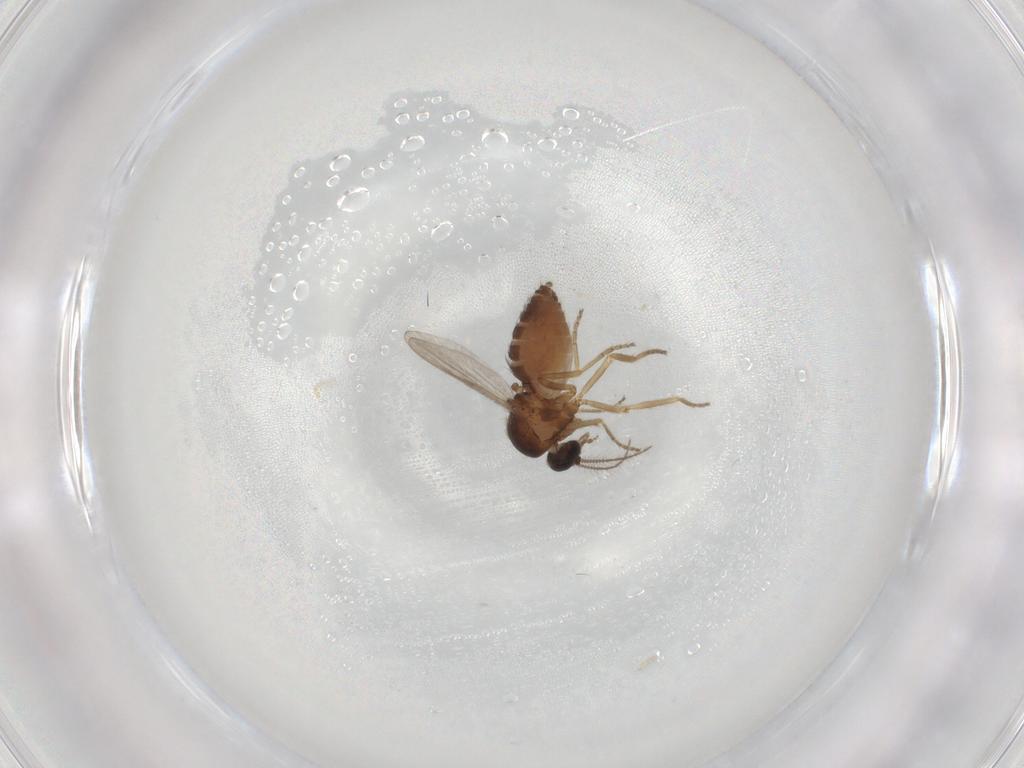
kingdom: Animalia
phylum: Arthropoda
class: Insecta
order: Diptera
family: Ceratopogonidae
